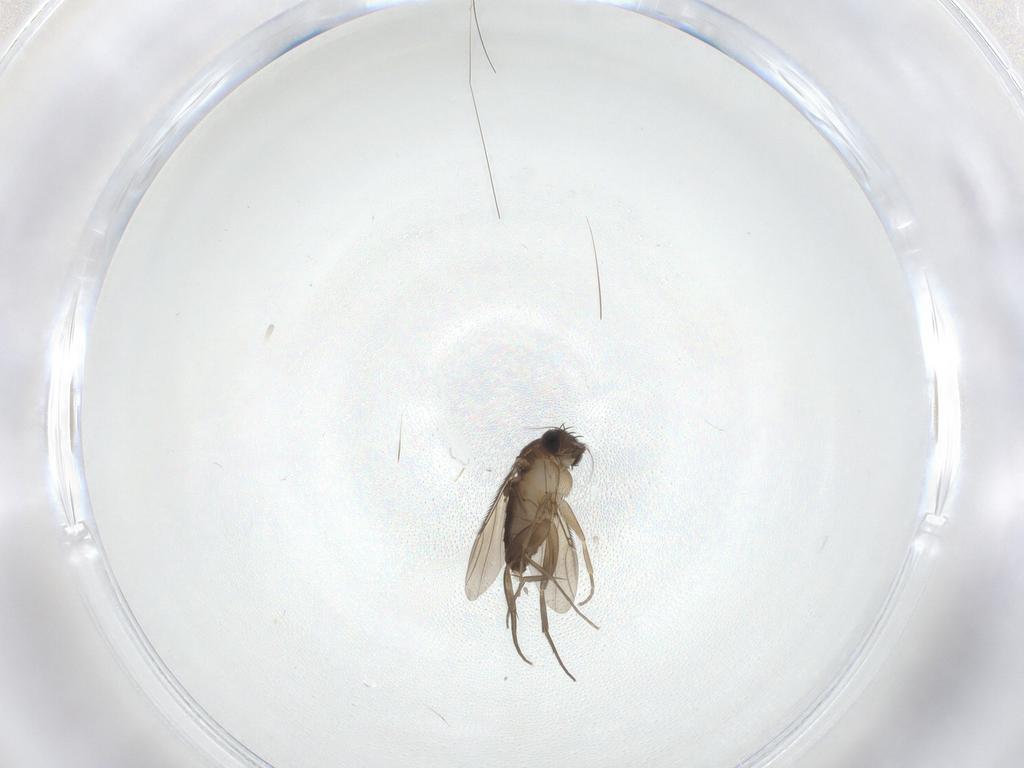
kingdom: Animalia
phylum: Arthropoda
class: Insecta
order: Diptera
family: Phoridae
